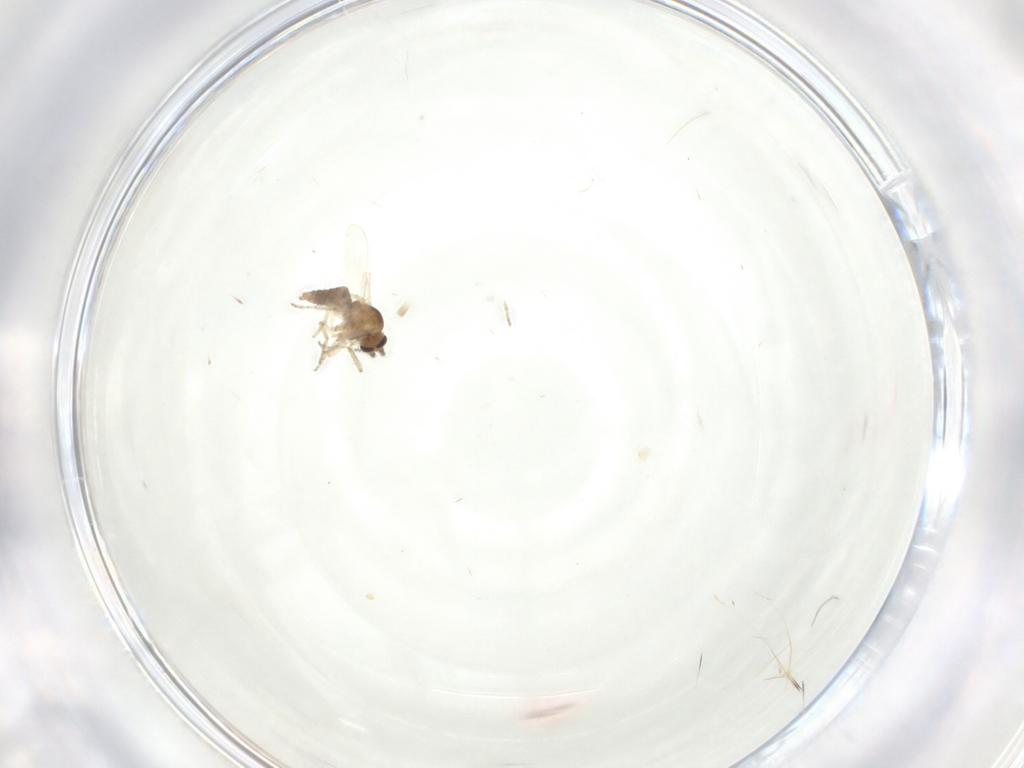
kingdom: Animalia
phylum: Arthropoda
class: Insecta
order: Diptera
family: Ceratopogonidae
